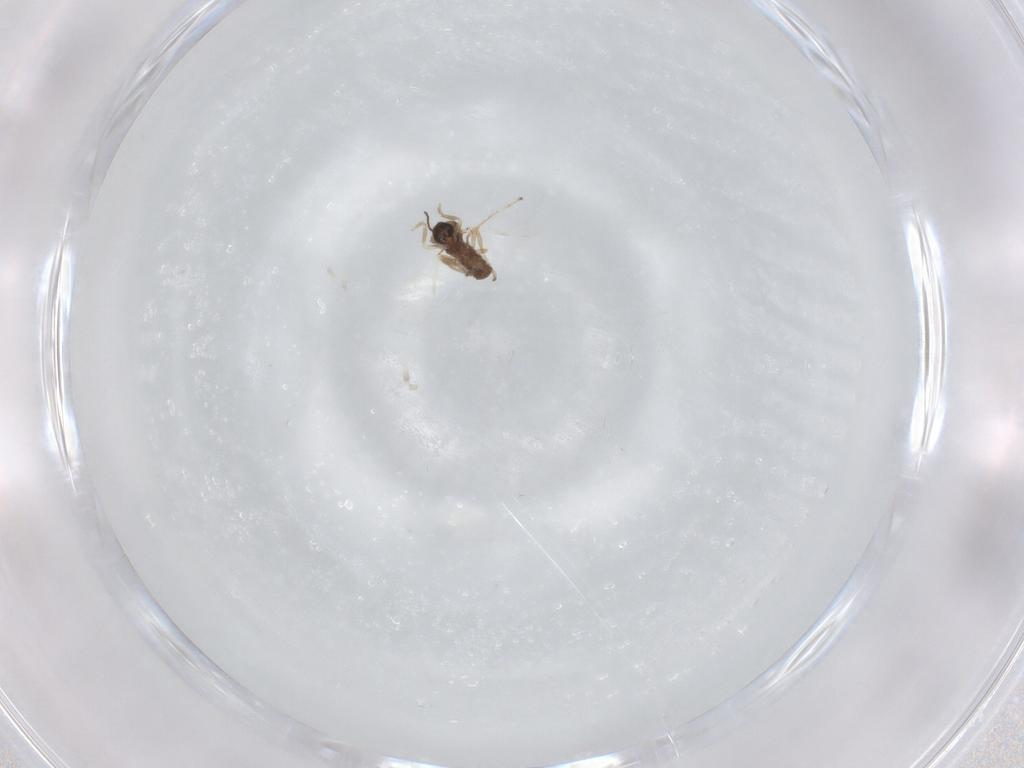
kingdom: Animalia
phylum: Arthropoda
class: Insecta
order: Diptera
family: Ceratopogonidae
